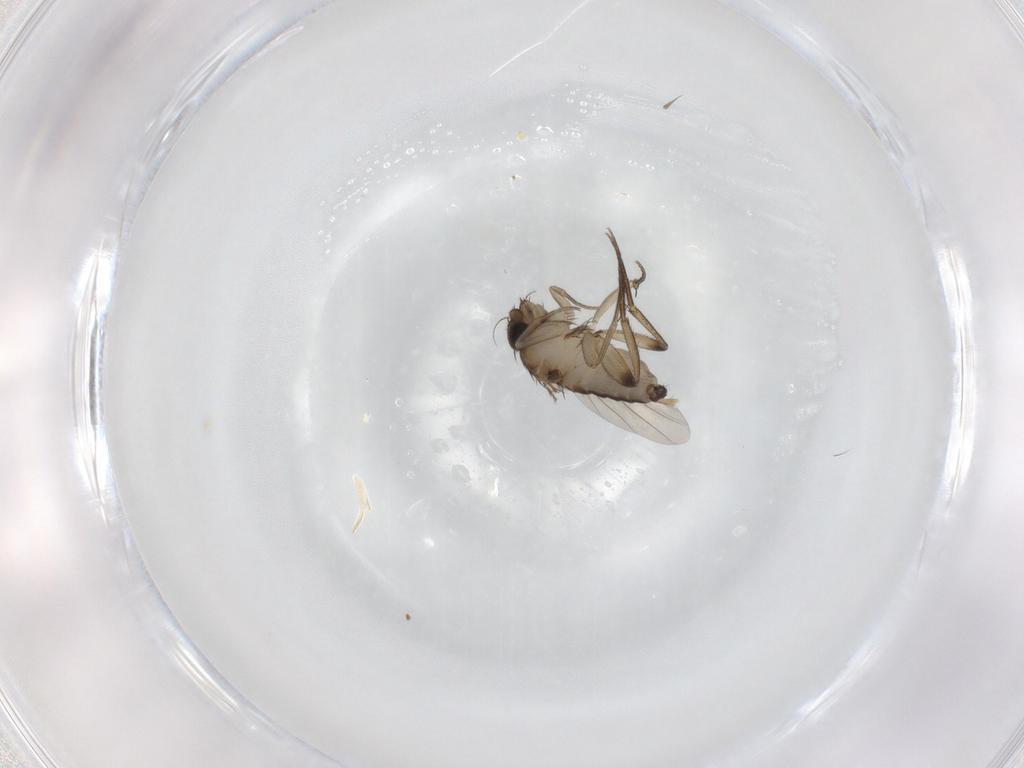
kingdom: Animalia
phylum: Arthropoda
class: Insecta
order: Diptera
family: Phoridae
